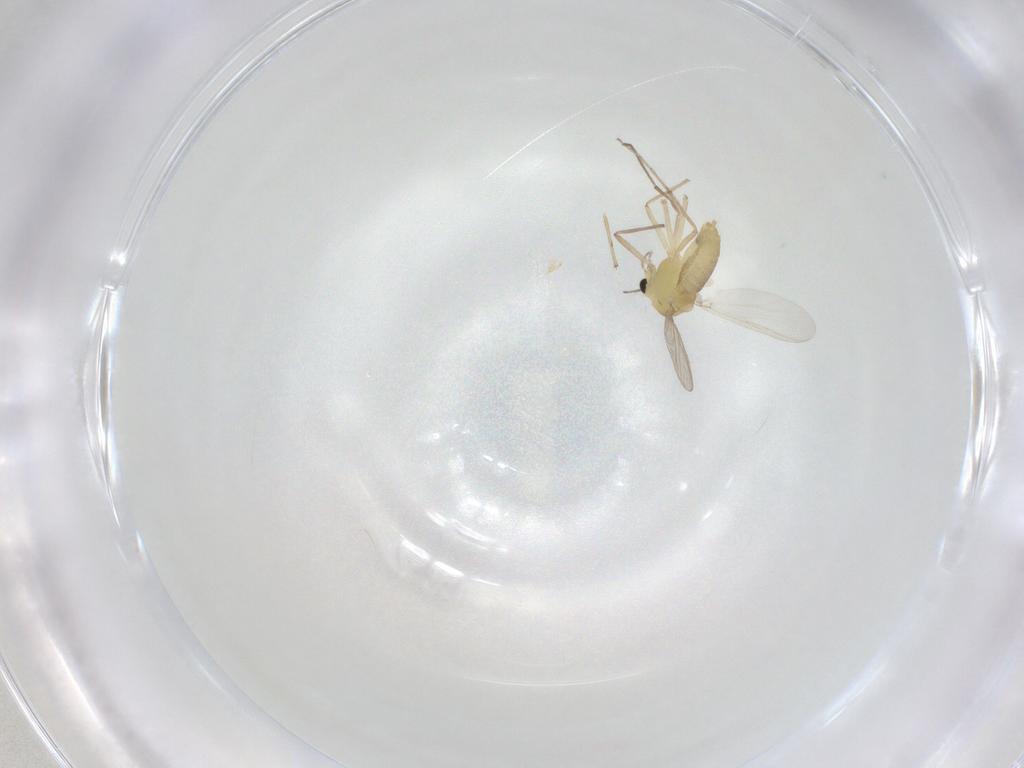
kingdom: Animalia
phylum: Arthropoda
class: Insecta
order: Diptera
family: Chironomidae
